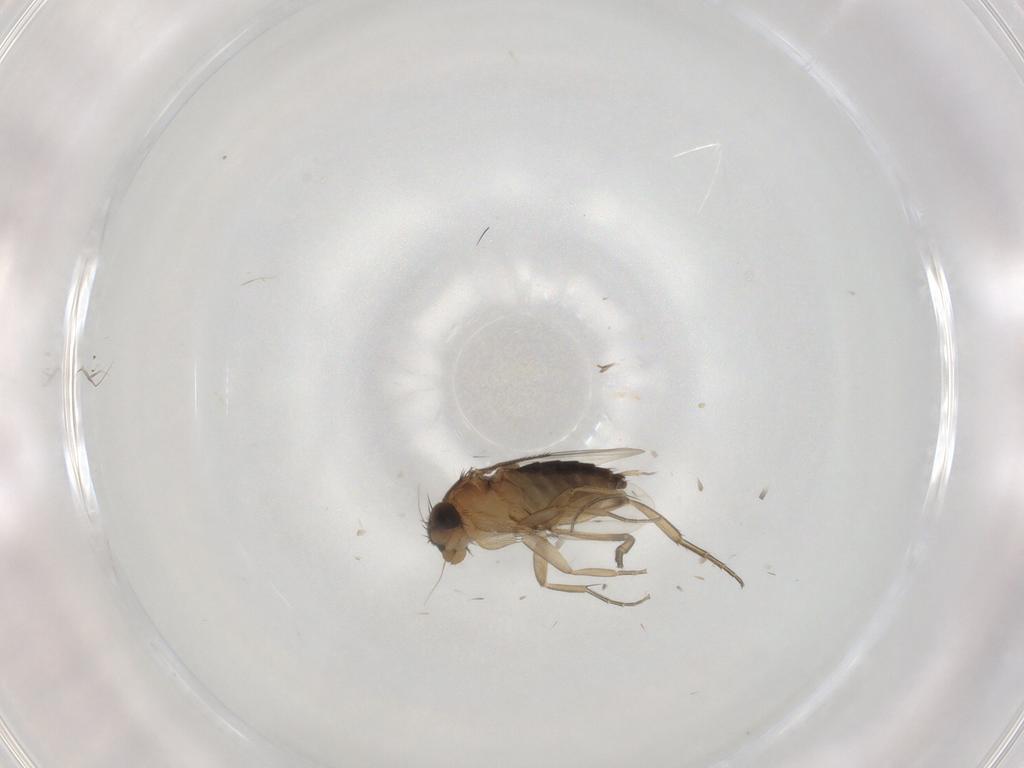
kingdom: Animalia
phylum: Arthropoda
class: Insecta
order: Diptera
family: Phoridae
